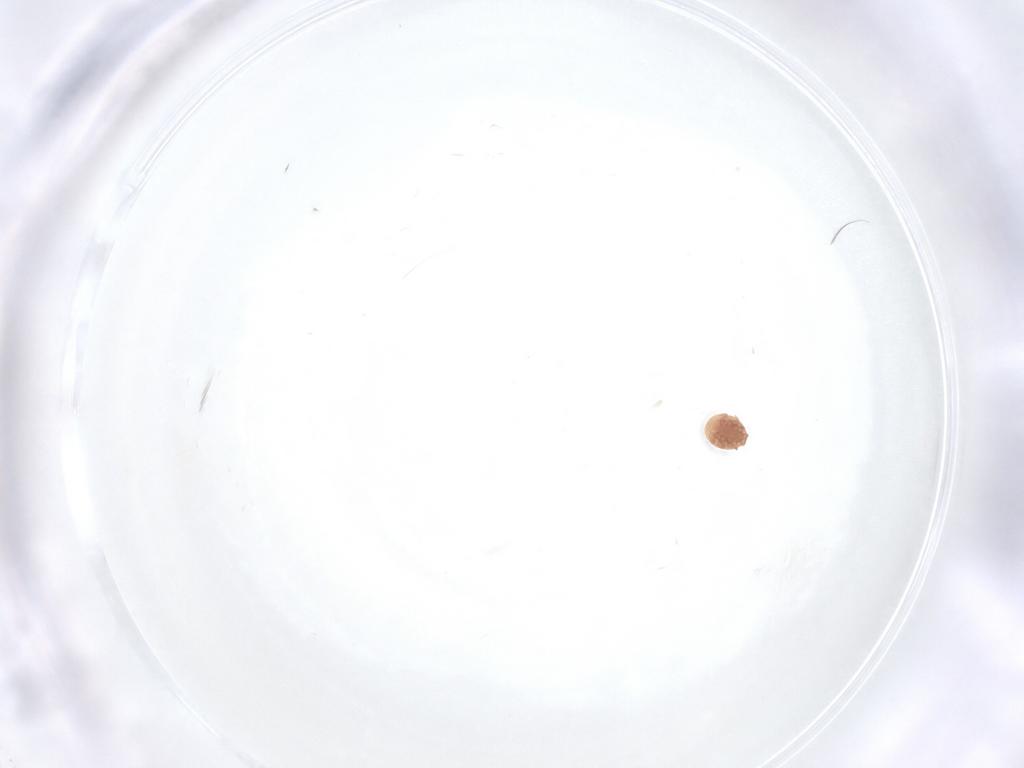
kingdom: Animalia
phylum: Arthropoda
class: Arachnida
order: Mesostigmata
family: Trematuridae
